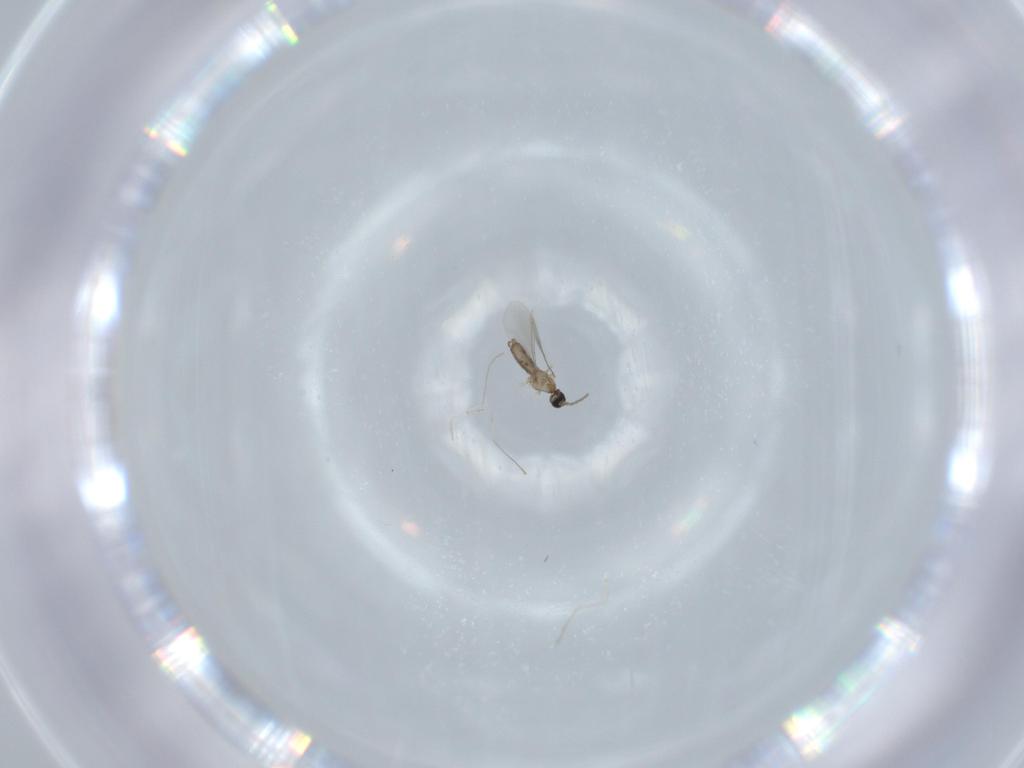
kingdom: Animalia
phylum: Arthropoda
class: Insecta
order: Diptera
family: Cecidomyiidae
